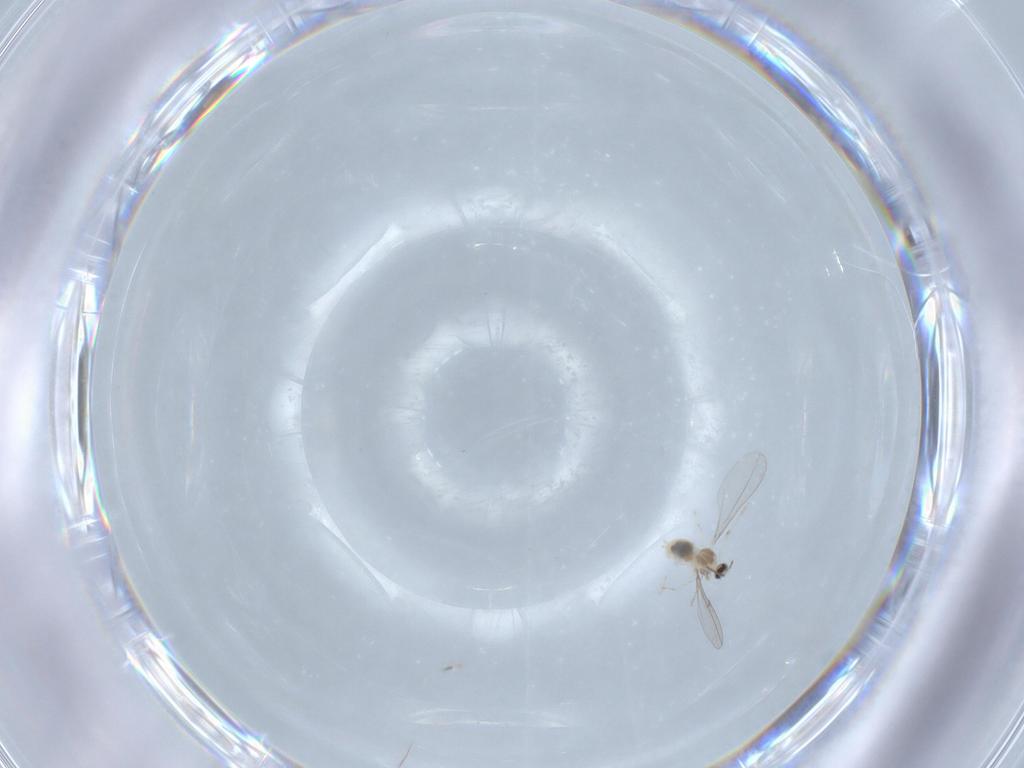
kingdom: Animalia
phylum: Arthropoda
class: Insecta
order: Diptera
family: Cecidomyiidae
